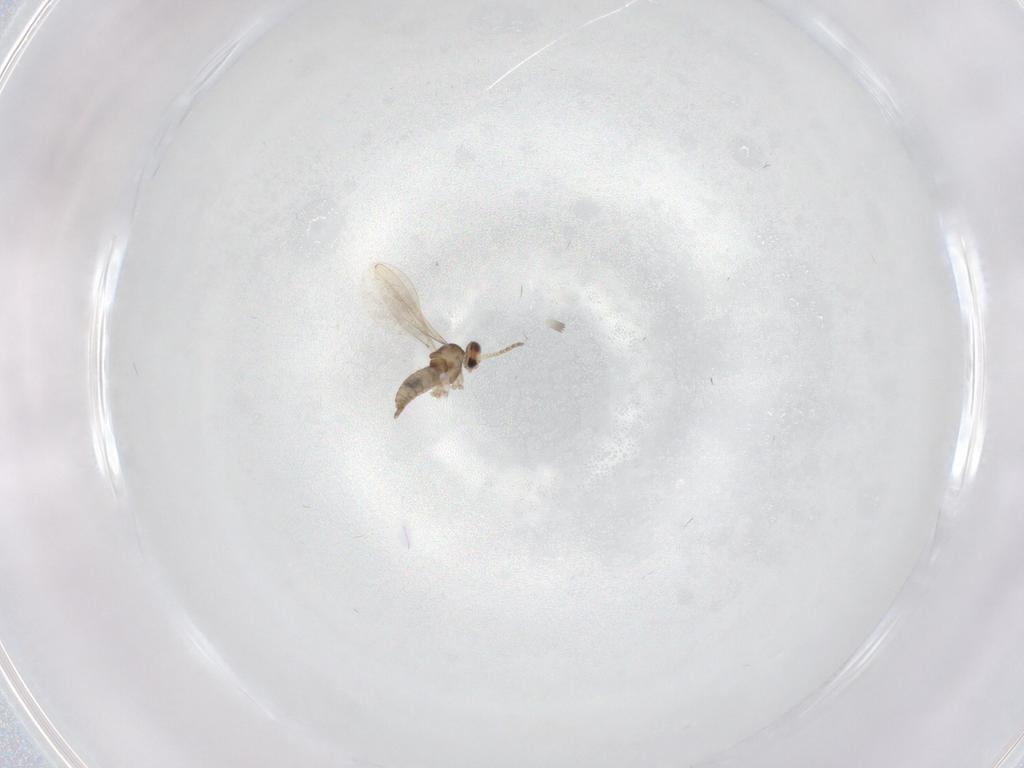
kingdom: Animalia
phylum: Arthropoda
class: Insecta
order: Diptera
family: Cecidomyiidae
